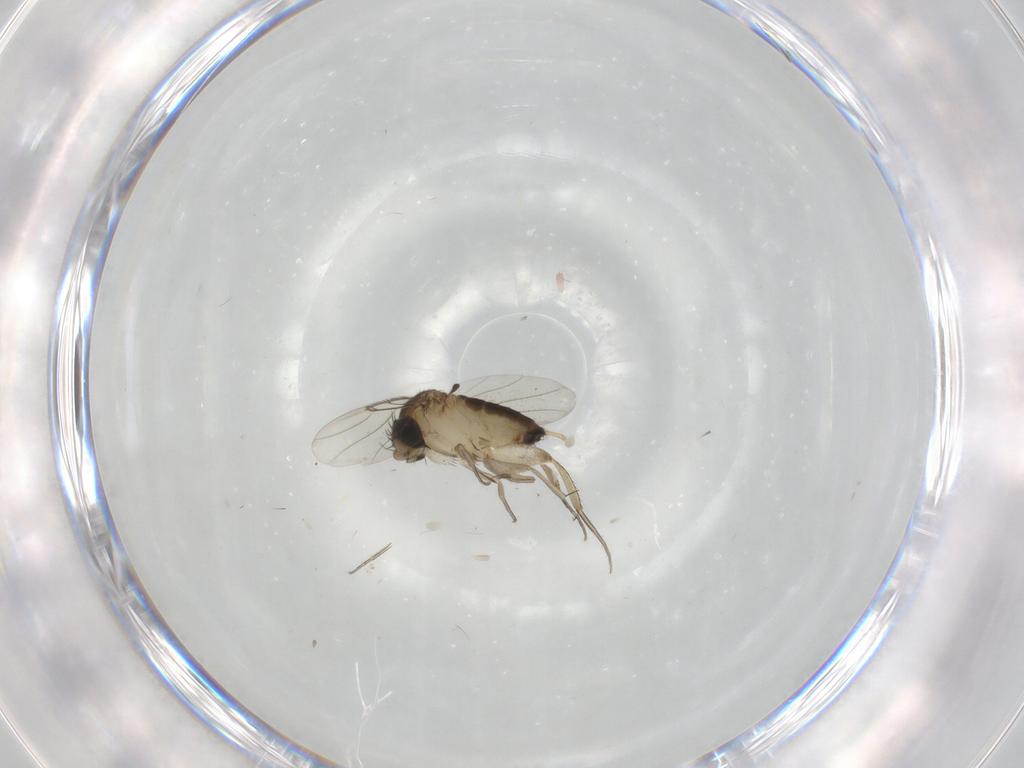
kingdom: Animalia
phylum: Arthropoda
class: Insecta
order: Diptera
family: Phoridae
